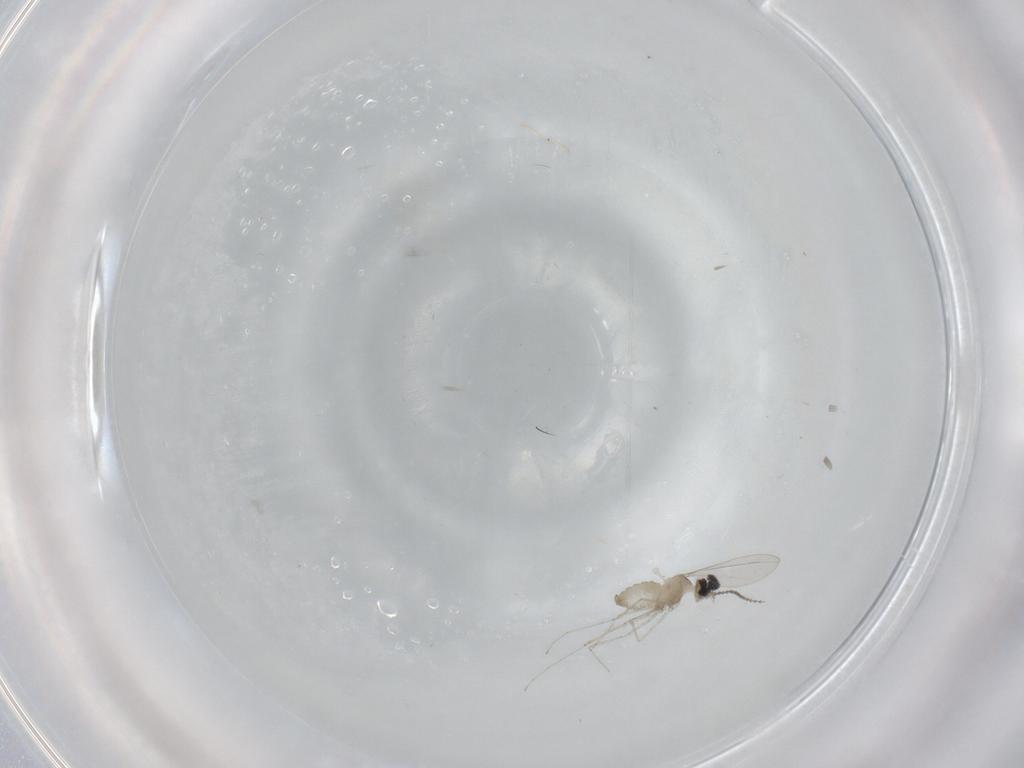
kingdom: Animalia
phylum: Arthropoda
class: Insecta
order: Diptera
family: Cecidomyiidae
